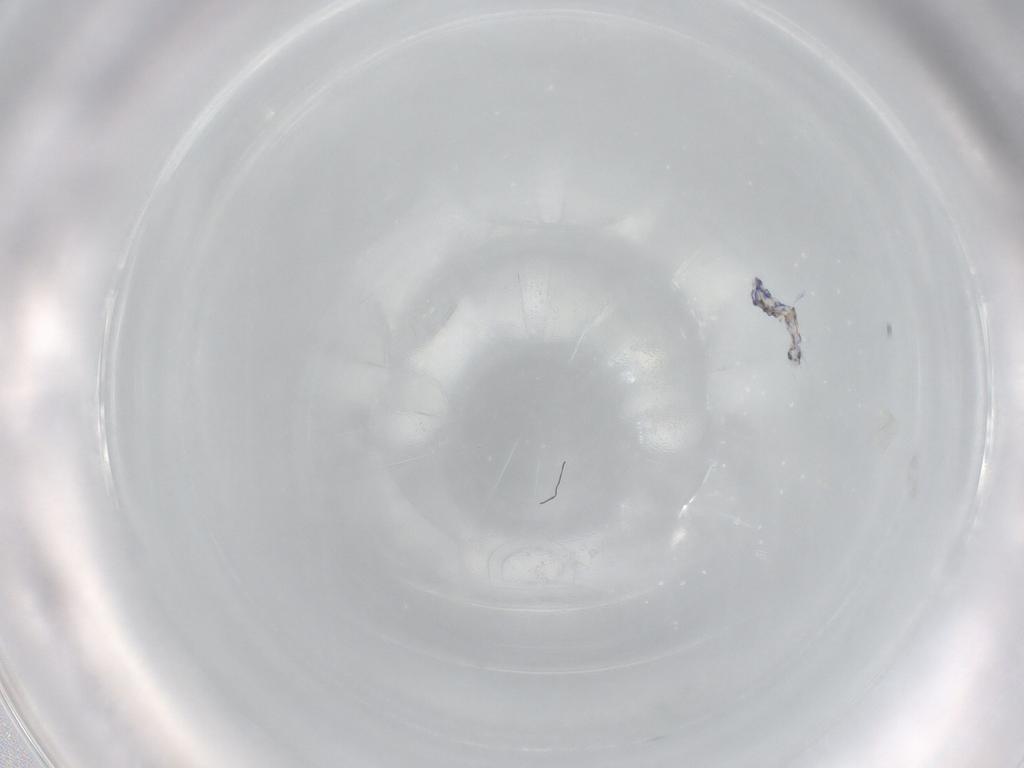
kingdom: Animalia
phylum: Arthropoda
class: Collembola
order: Entomobryomorpha
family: Entomobryidae
